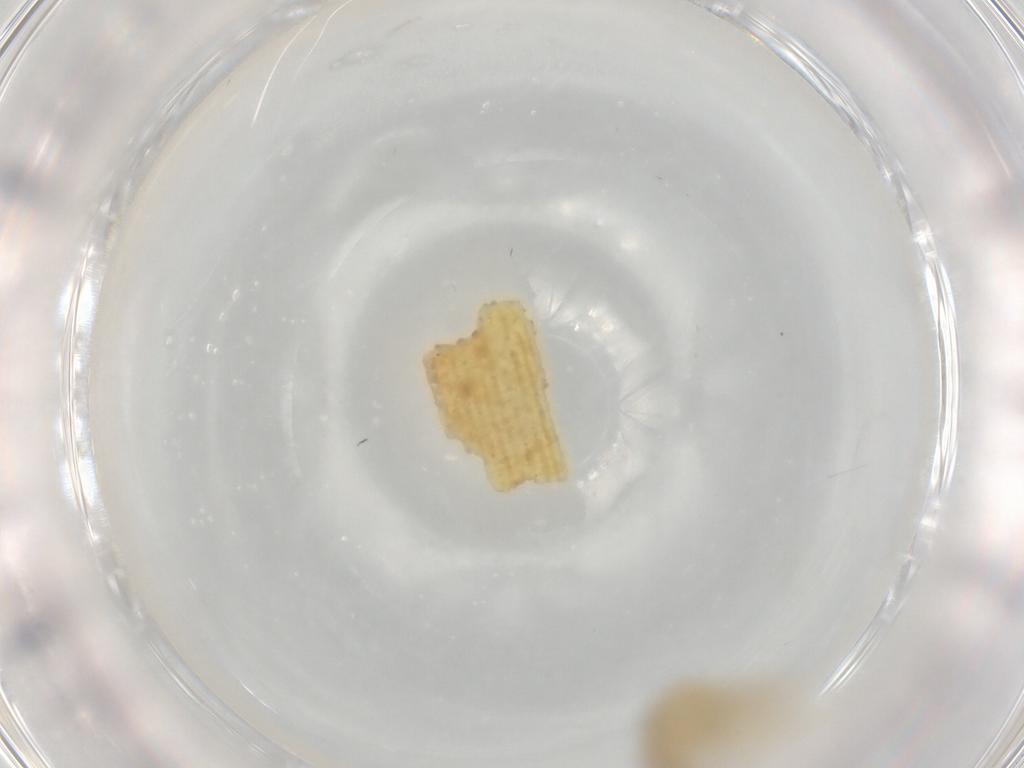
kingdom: Animalia
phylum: Arthropoda
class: Insecta
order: Psocodea
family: Caeciliusidae
